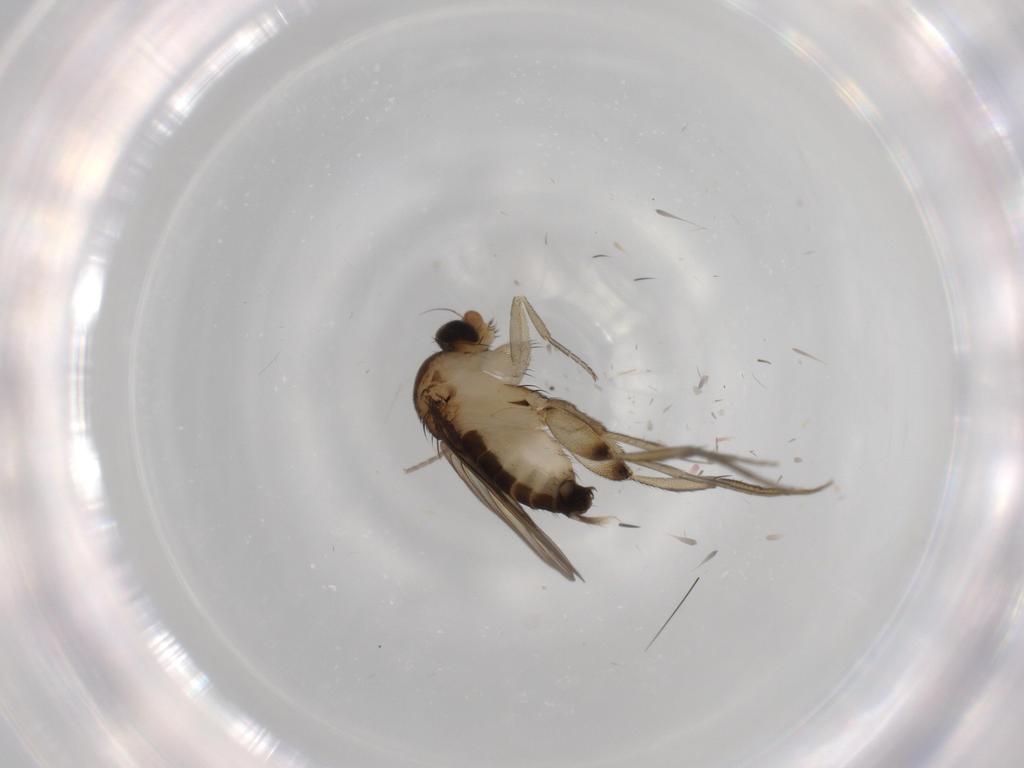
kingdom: Animalia
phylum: Arthropoda
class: Insecta
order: Diptera
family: Phoridae
